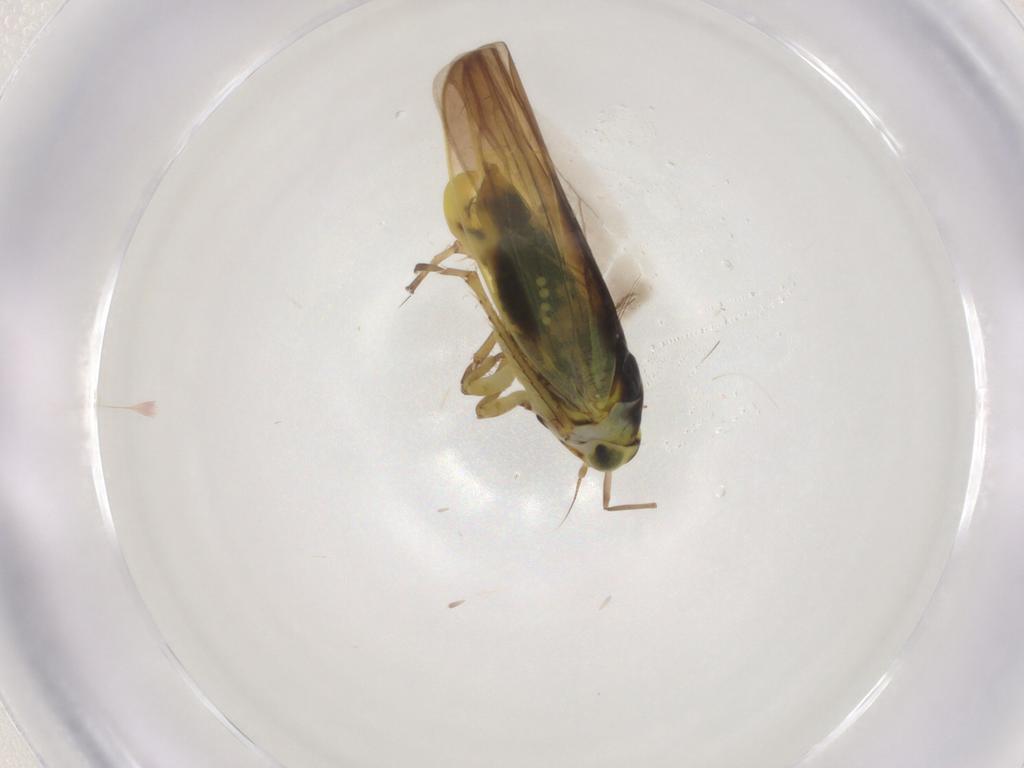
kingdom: Animalia
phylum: Arthropoda
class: Insecta
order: Hemiptera
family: Cicadellidae
